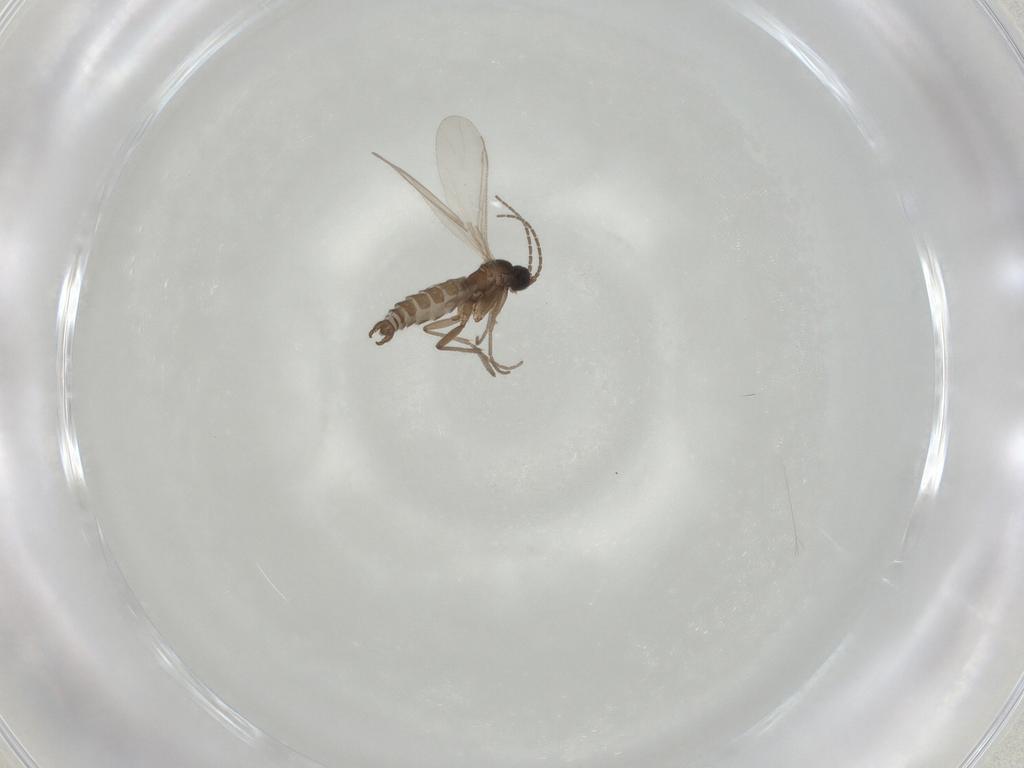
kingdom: Animalia
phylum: Arthropoda
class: Insecta
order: Diptera
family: Sciaridae
